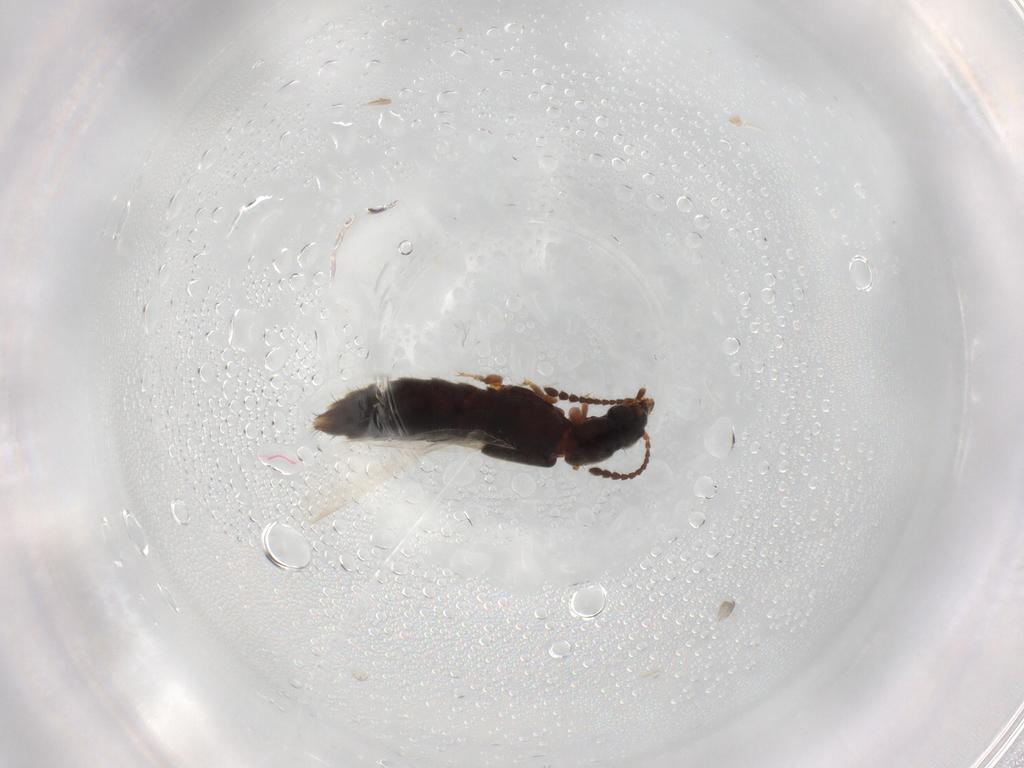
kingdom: Animalia
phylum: Arthropoda
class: Insecta
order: Coleoptera
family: Staphylinidae
